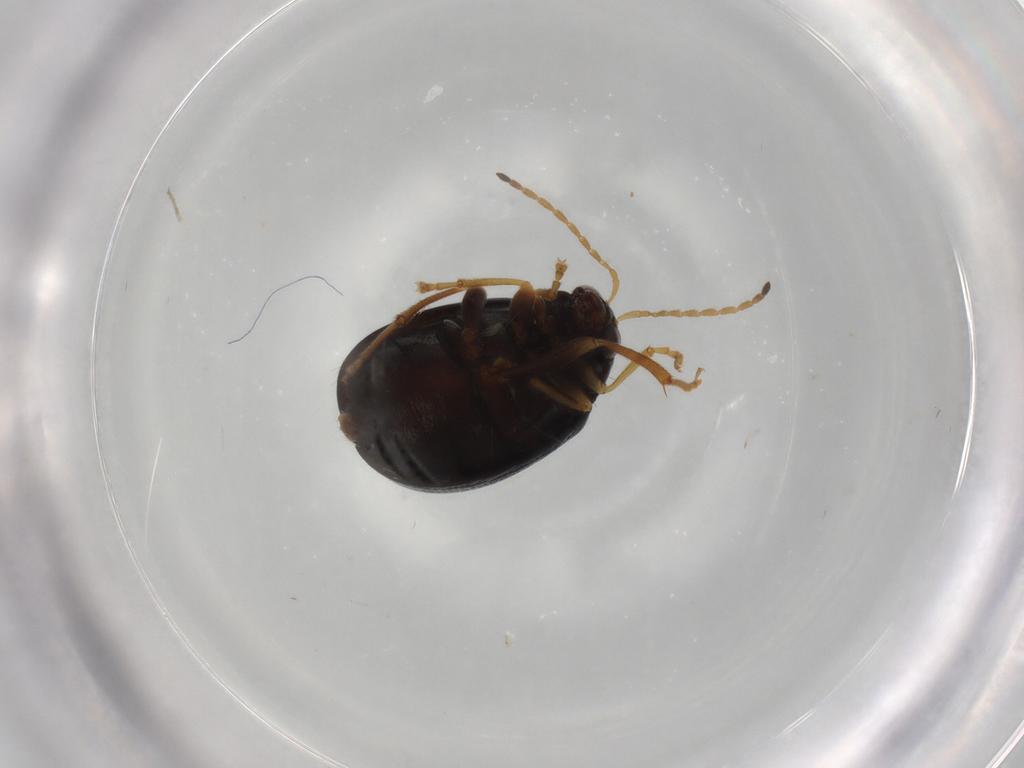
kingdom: Animalia
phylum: Arthropoda
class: Insecta
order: Coleoptera
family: Chrysomelidae
